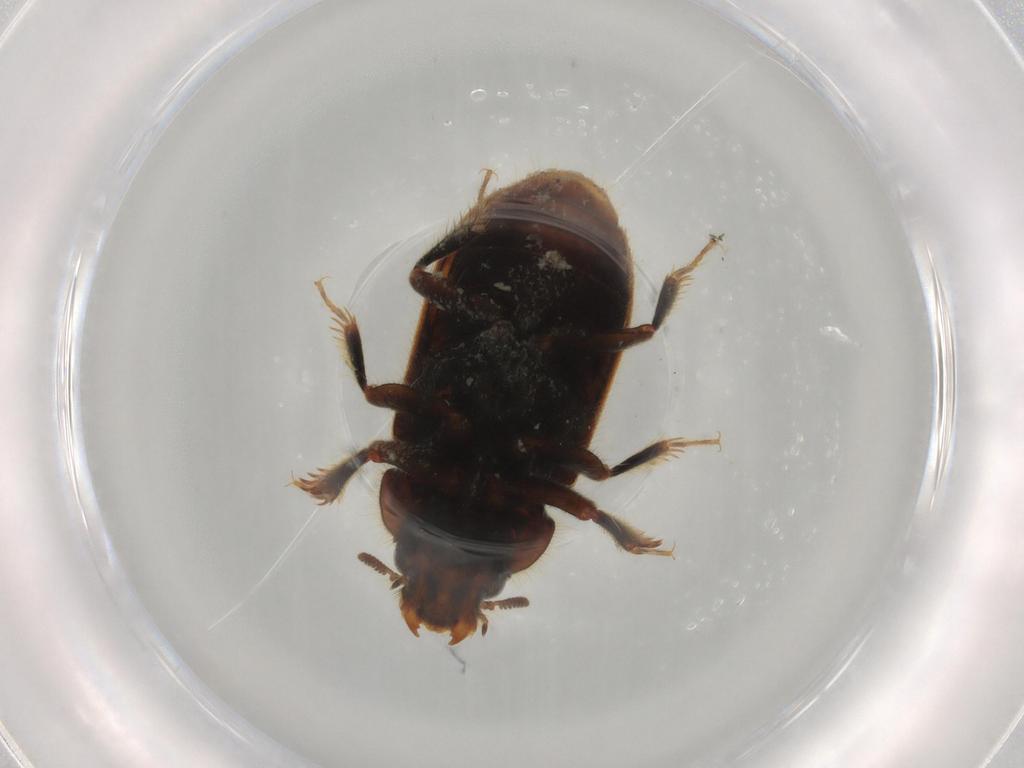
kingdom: Animalia
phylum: Arthropoda
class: Insecta
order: Coleoptera
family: Heteroceridae
